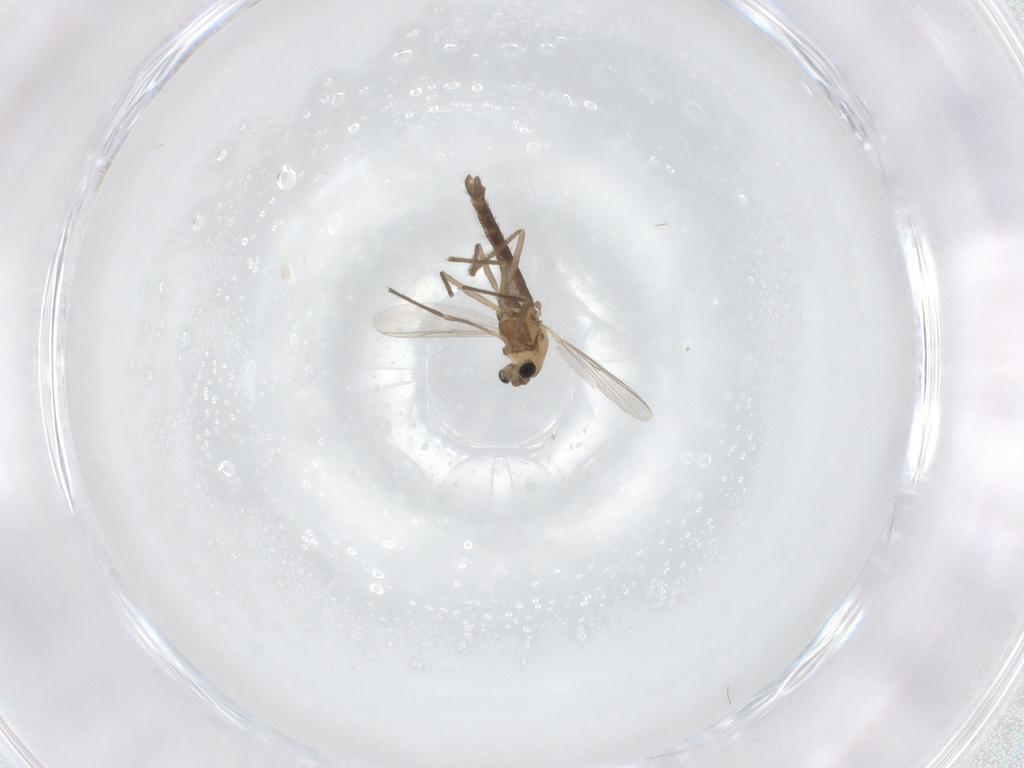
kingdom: Animalia
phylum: Arthropoda
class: Insecta
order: Diptera
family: Chironomidae
